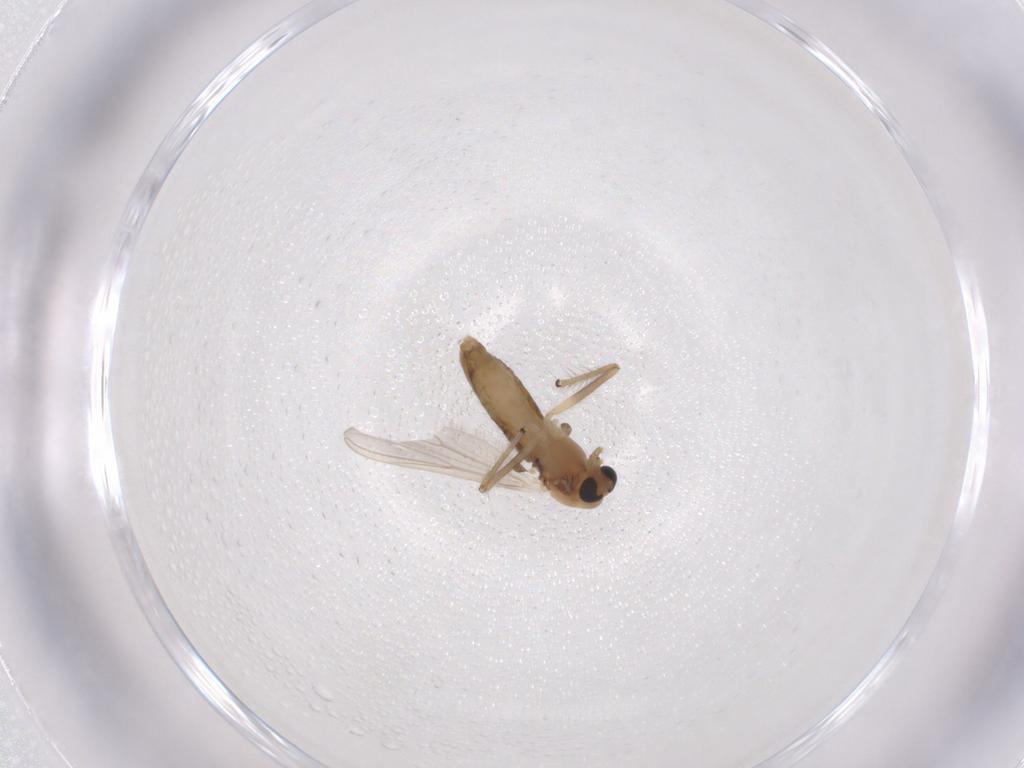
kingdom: Animalia
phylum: Arthropoda
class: Insecta
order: Diptera
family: Chironomidae
